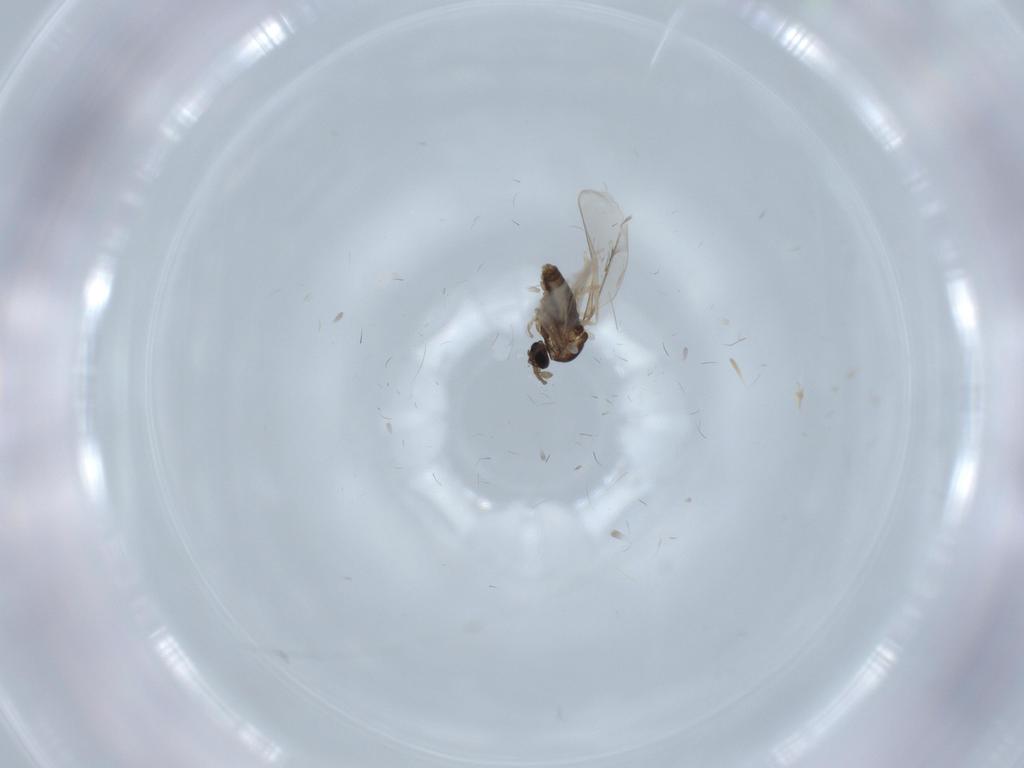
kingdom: Animalia
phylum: Arthropoda
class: Insecta
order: Diptera
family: Cecidomyiidae
